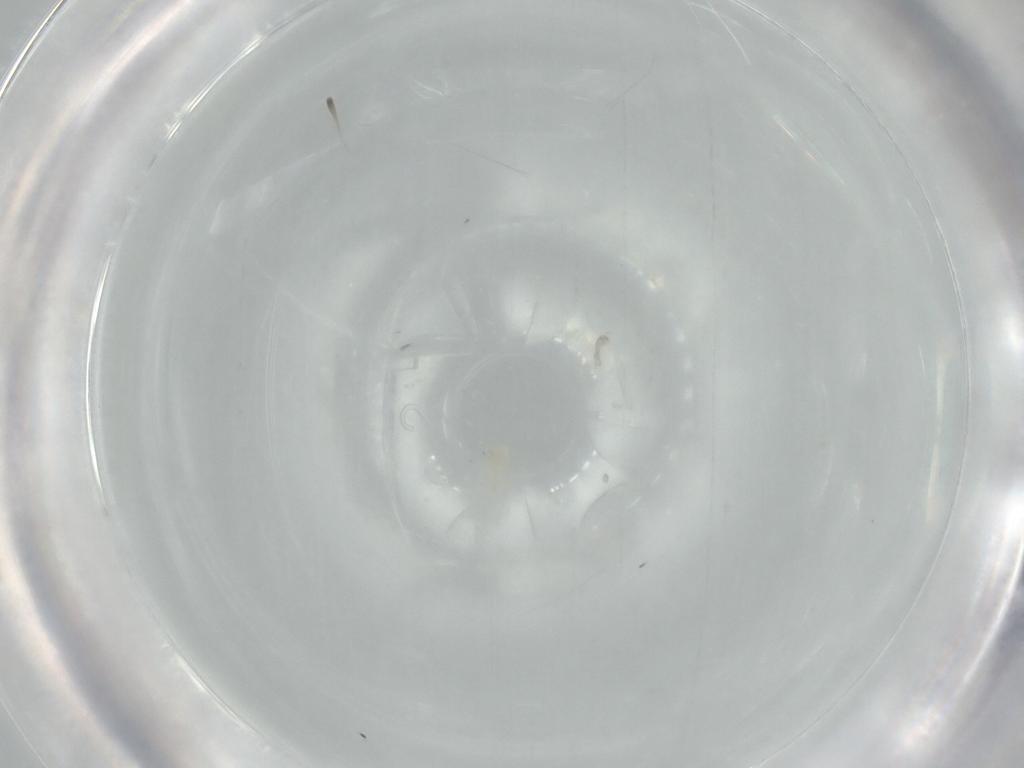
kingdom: Animalia
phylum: Arthropoda
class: Insecta
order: Diptera
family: Ceratopogonidae
